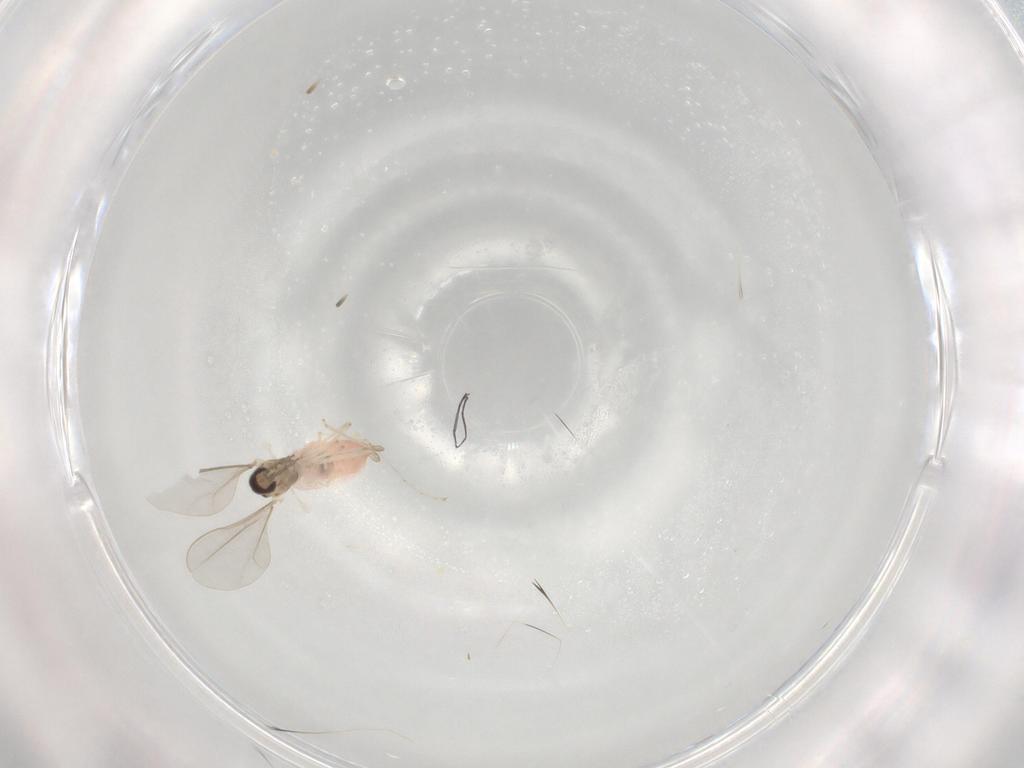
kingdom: Animalia
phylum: Arthropoda
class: Insecta
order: Diptera
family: Cecidomyiidae
